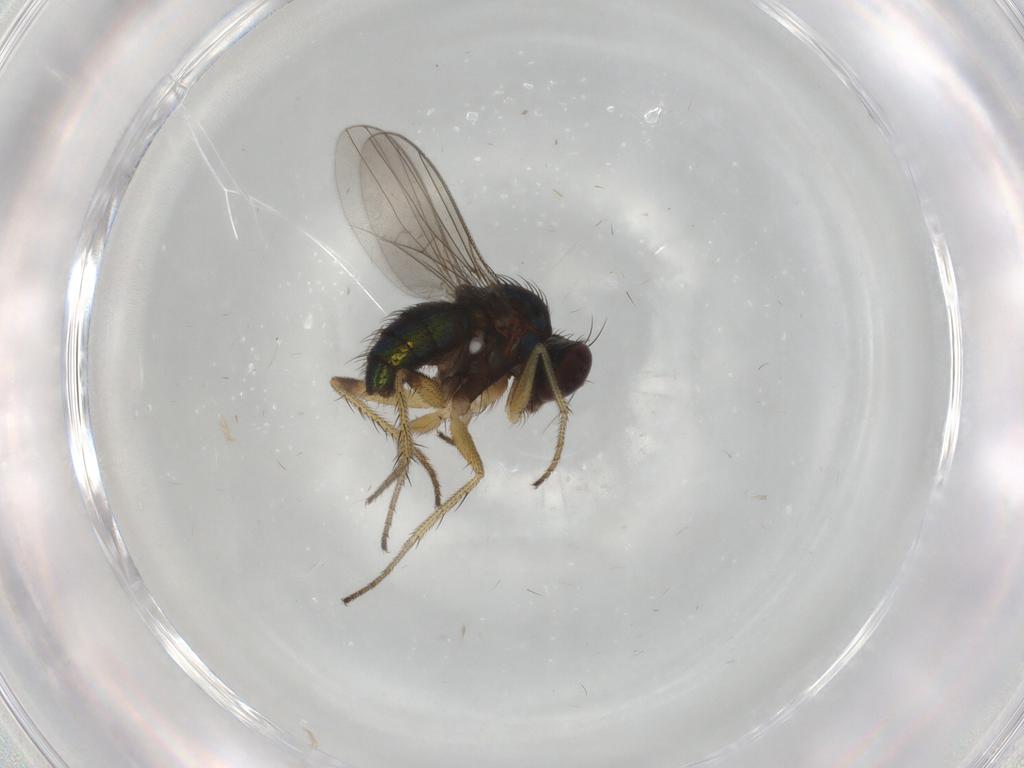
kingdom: Animalia
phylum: Arthropoda
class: Insecta
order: Diptera
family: Dolichopodidae
